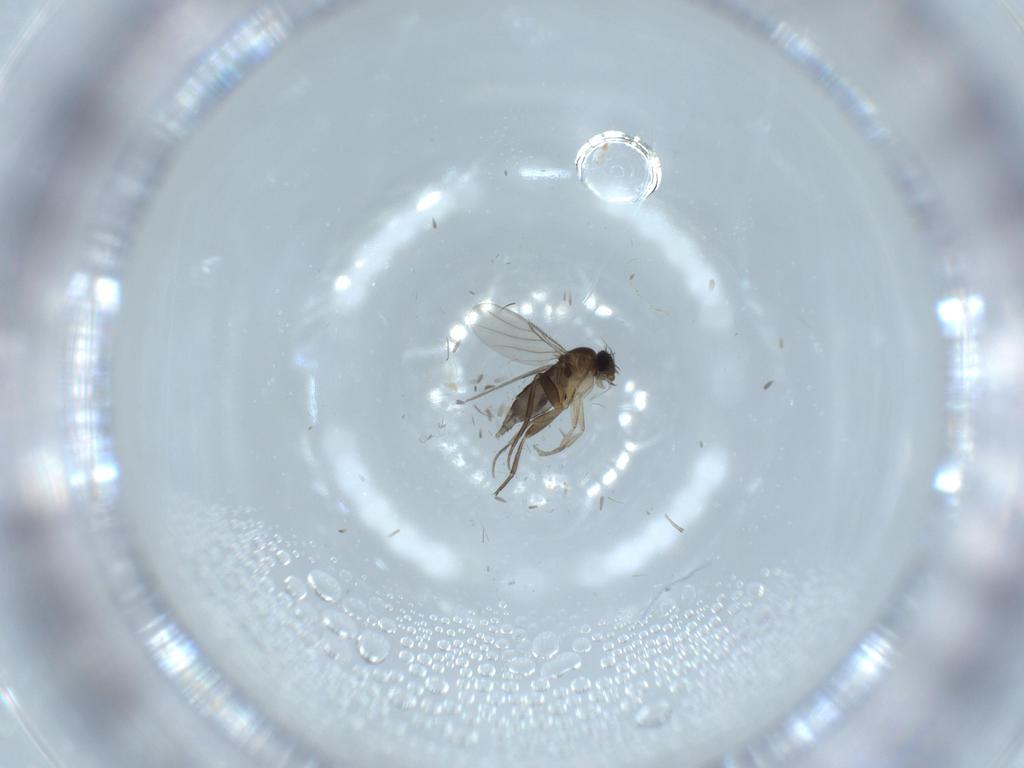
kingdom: Animalia
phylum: Arthropoda
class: Insecta
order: Diptera
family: Phoridae
